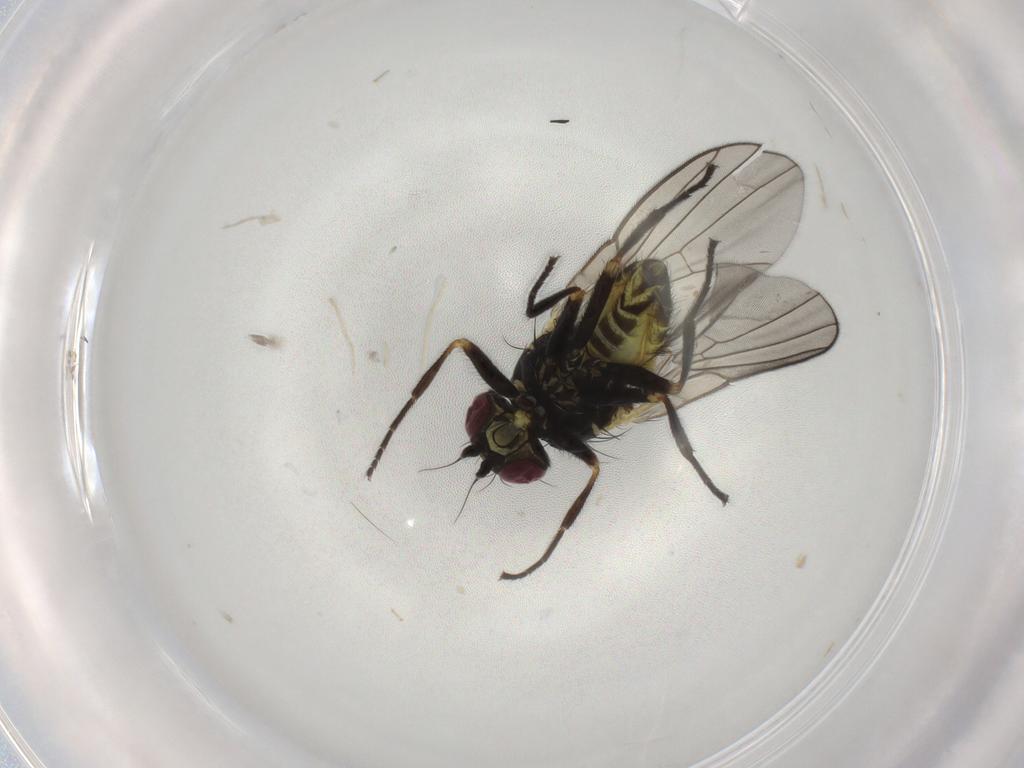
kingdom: Animalia
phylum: Arthropoda
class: Insecta
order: Diptera
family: Agromyzidae
